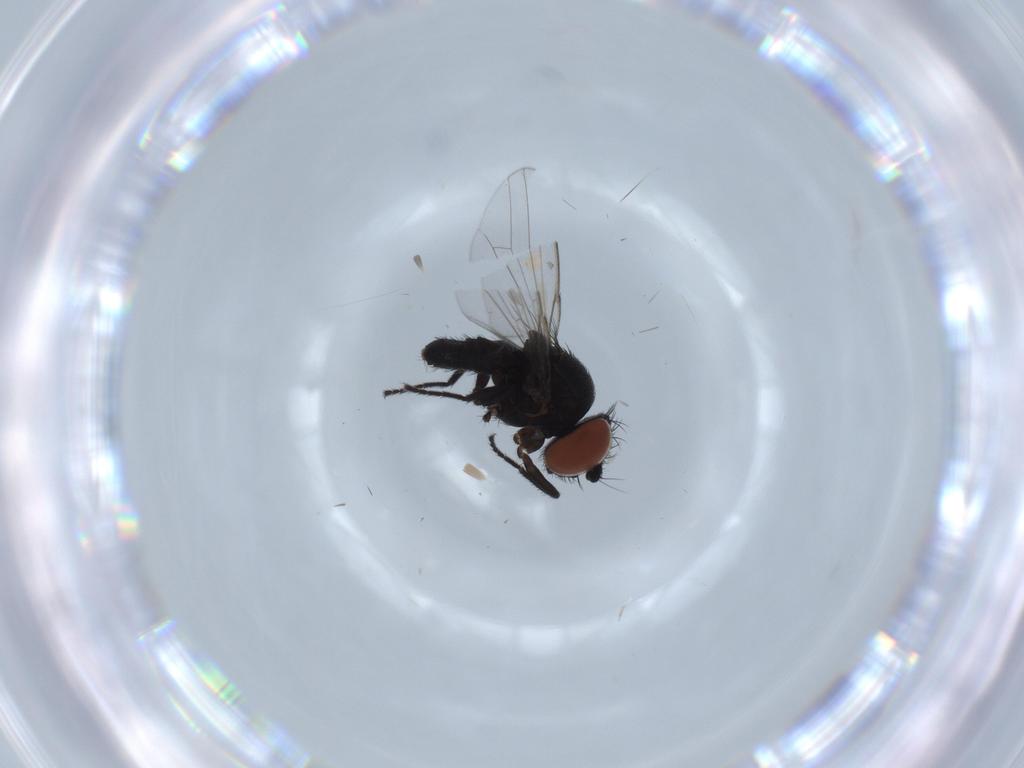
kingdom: Animalia
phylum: Arthropoda
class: Insecta
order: Diptera
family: Milichiidae
